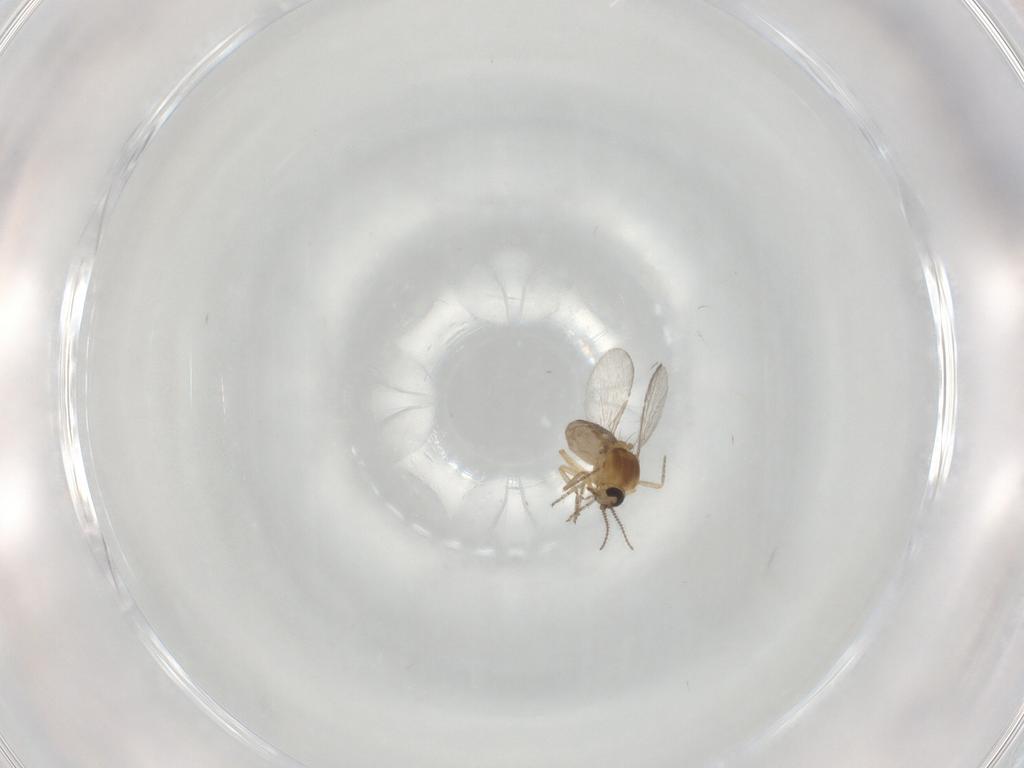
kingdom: Animalia
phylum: Arthropoda
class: Insecta
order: Diptera
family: Ceratopogonidae
